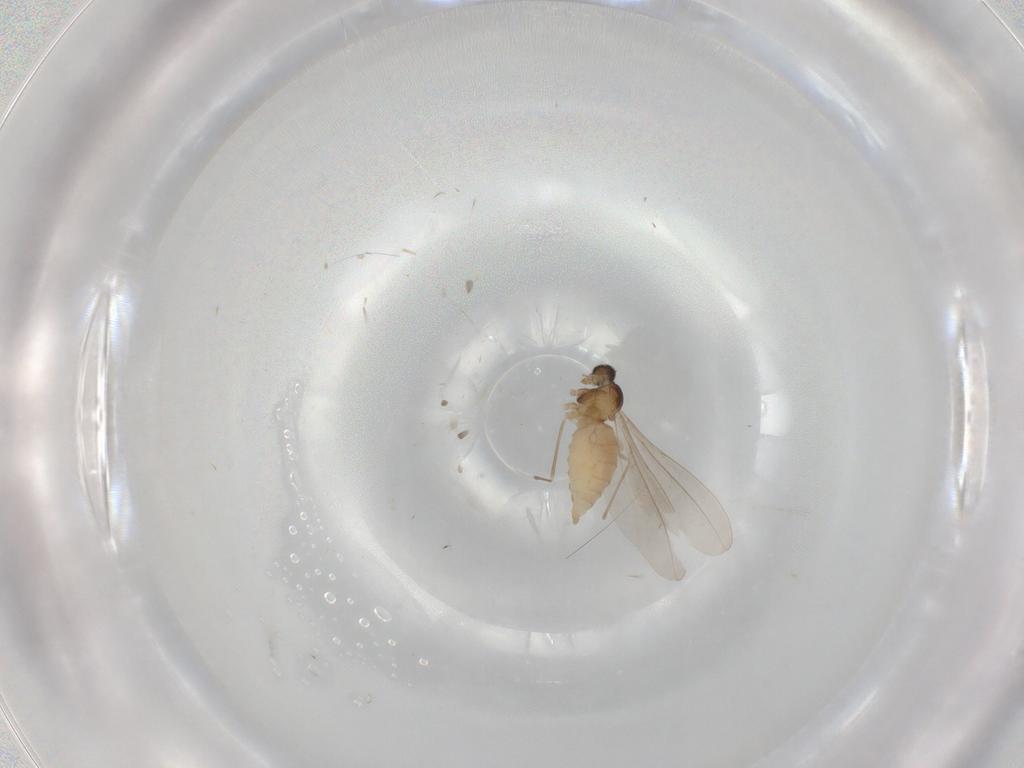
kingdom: Animalia
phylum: Arthropoda
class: Insecta
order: Diptera
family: Cecidomyiidae
